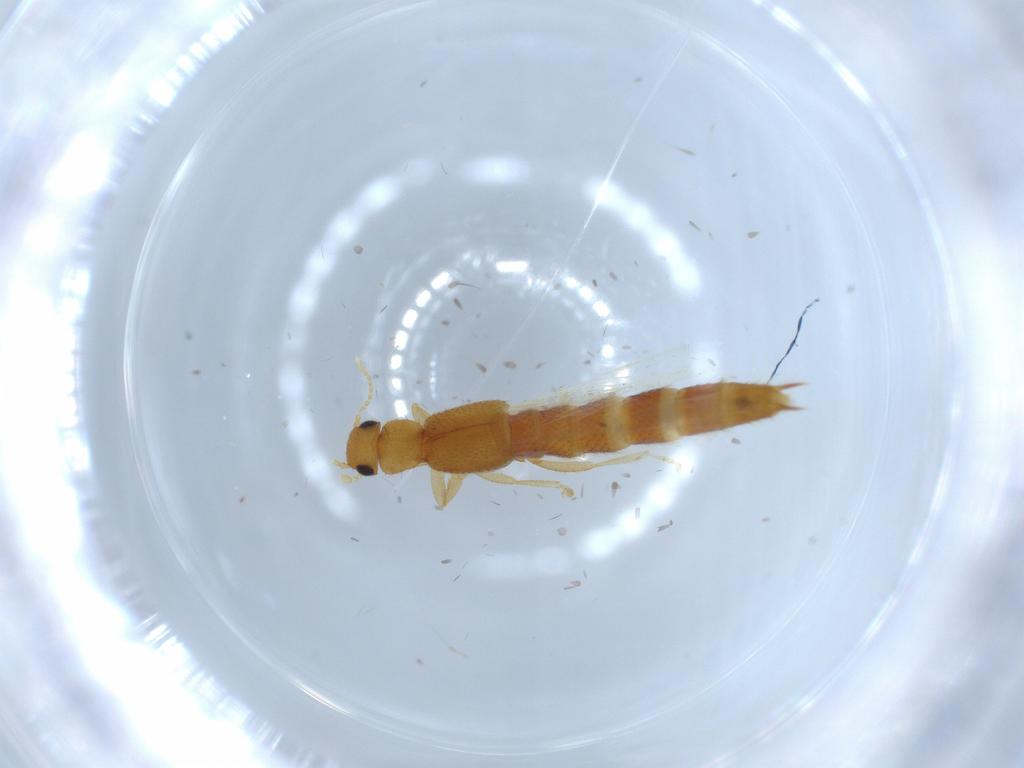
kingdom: Animalia
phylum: Arthropoda
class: Insecta
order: Coleoptera
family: Staphylinidae
